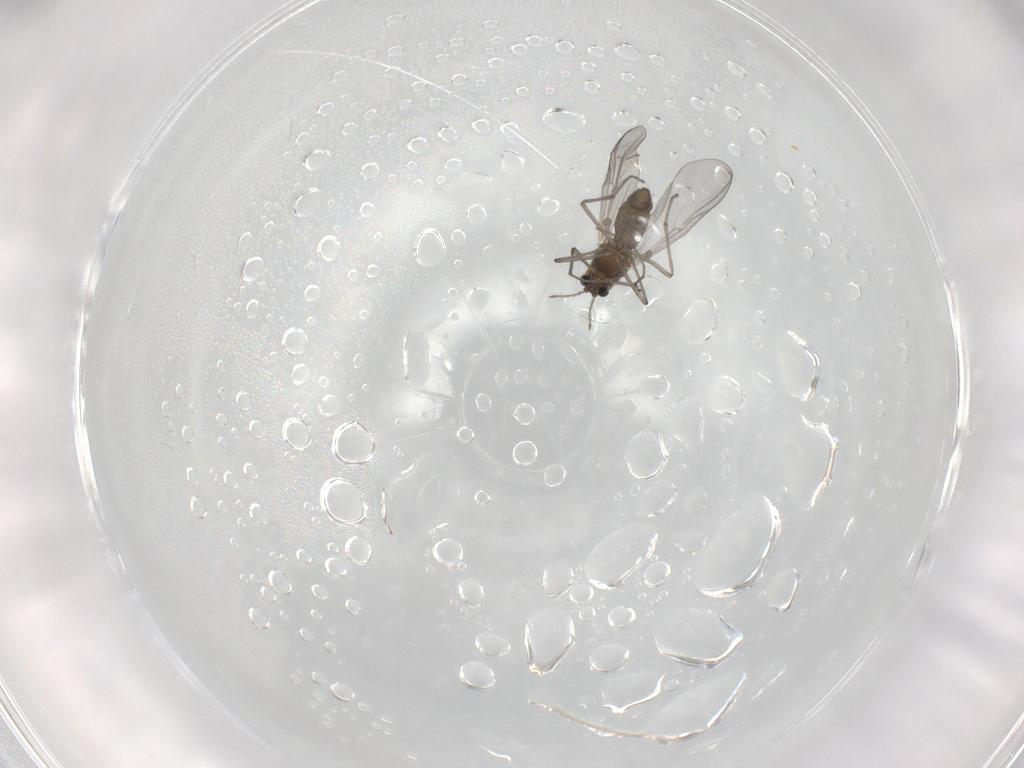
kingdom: Animalia
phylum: Arthropoda
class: Insecta
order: Diptera
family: Chironomidae
